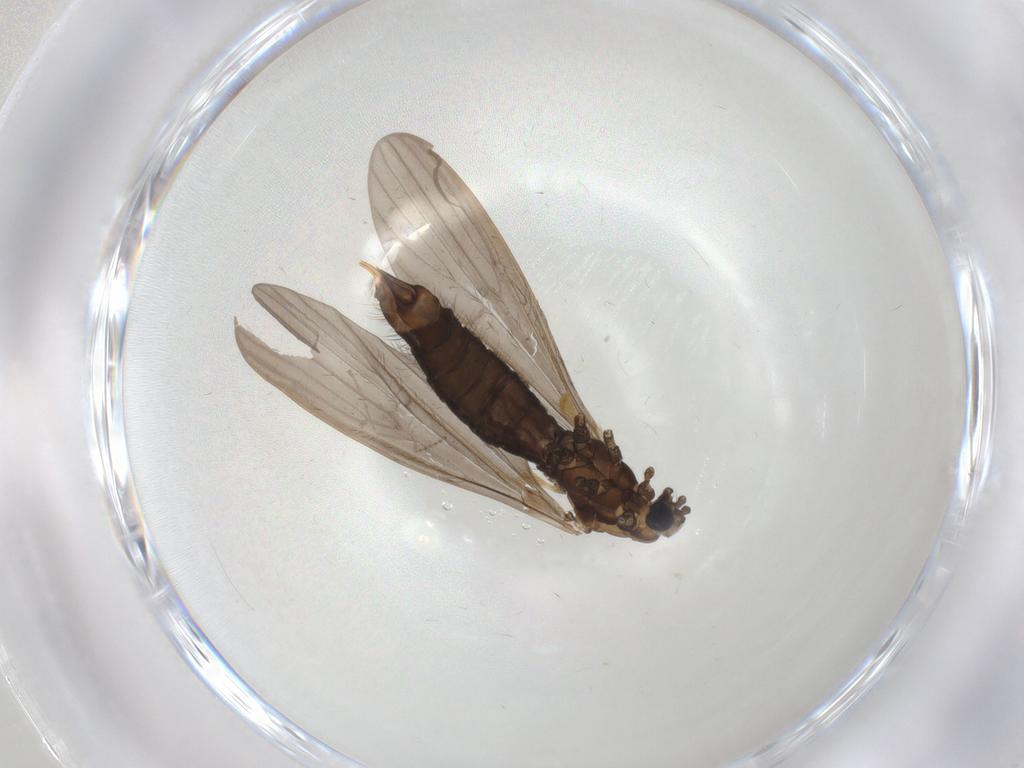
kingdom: Animalia
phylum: Arthropoda
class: Insecta
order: Diptera
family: Limoniidae
